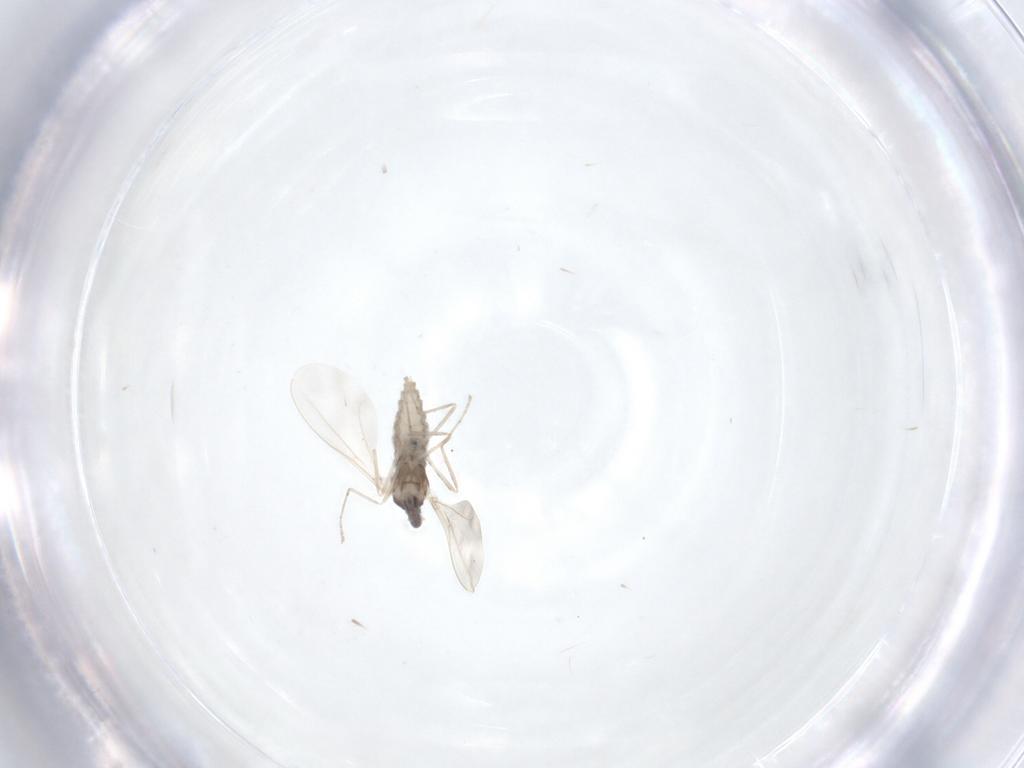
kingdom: Animalia
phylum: Arthropoda
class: Insecta
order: Diptera
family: Cecidomyiidae
